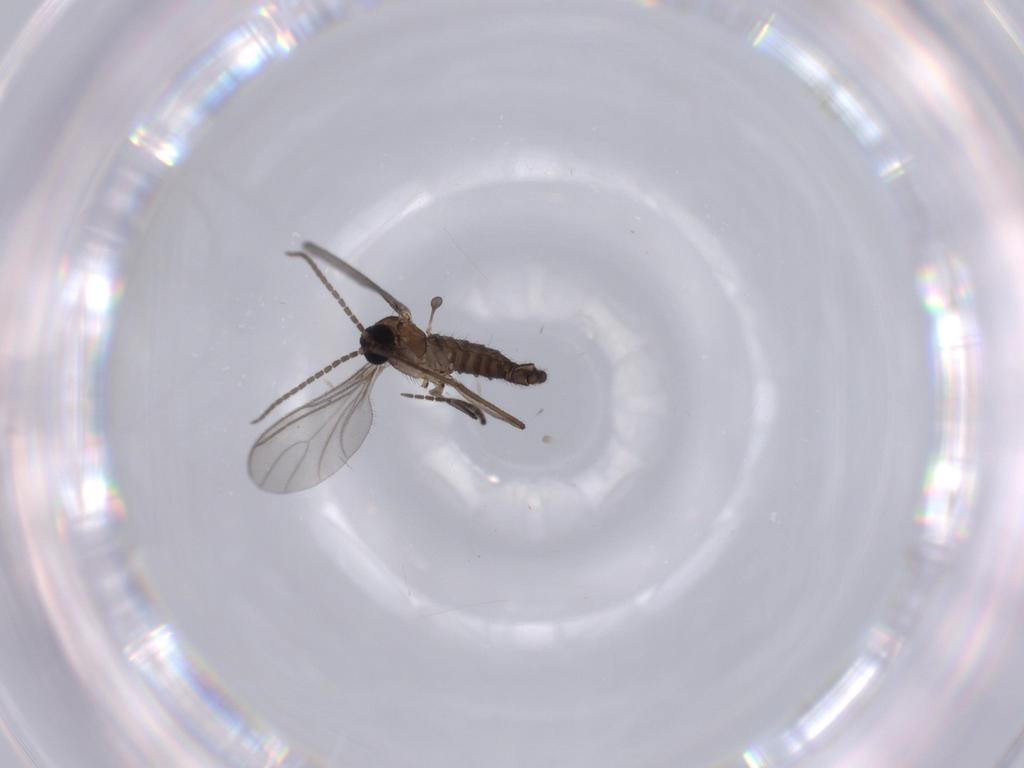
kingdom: Animalia
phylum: Arthropoda
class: Insecta
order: Diptera
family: Sciaridae
